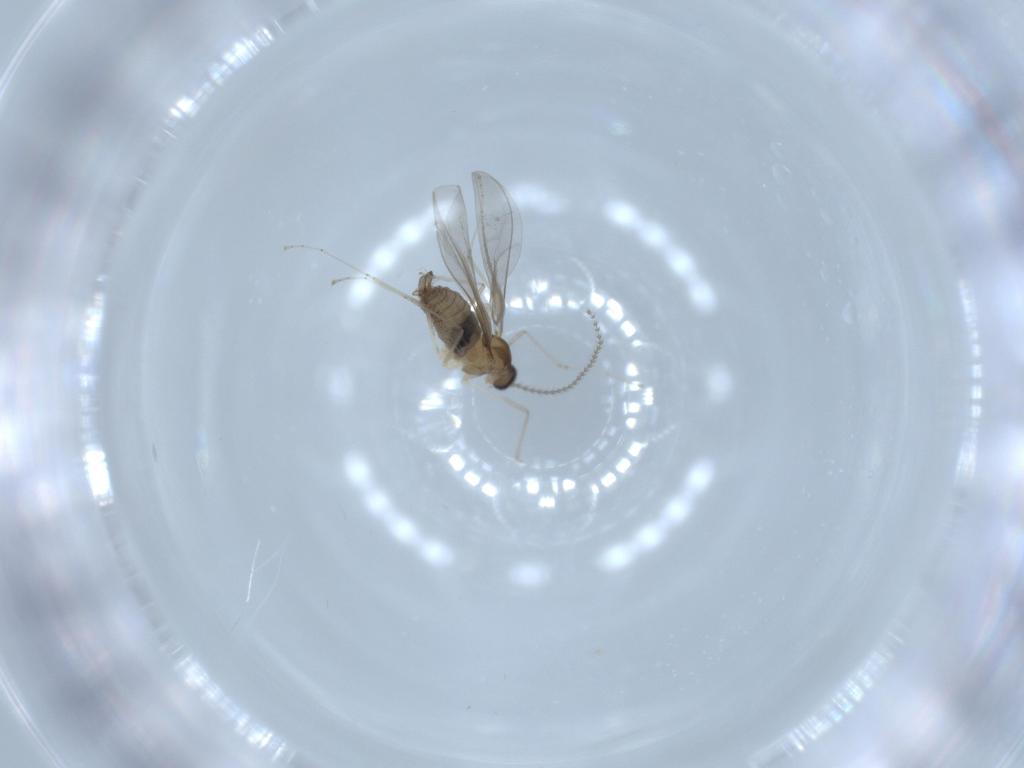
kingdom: Animalia
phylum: Arthropoda
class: Insecta
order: Diptera
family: Cecidomyiidae
